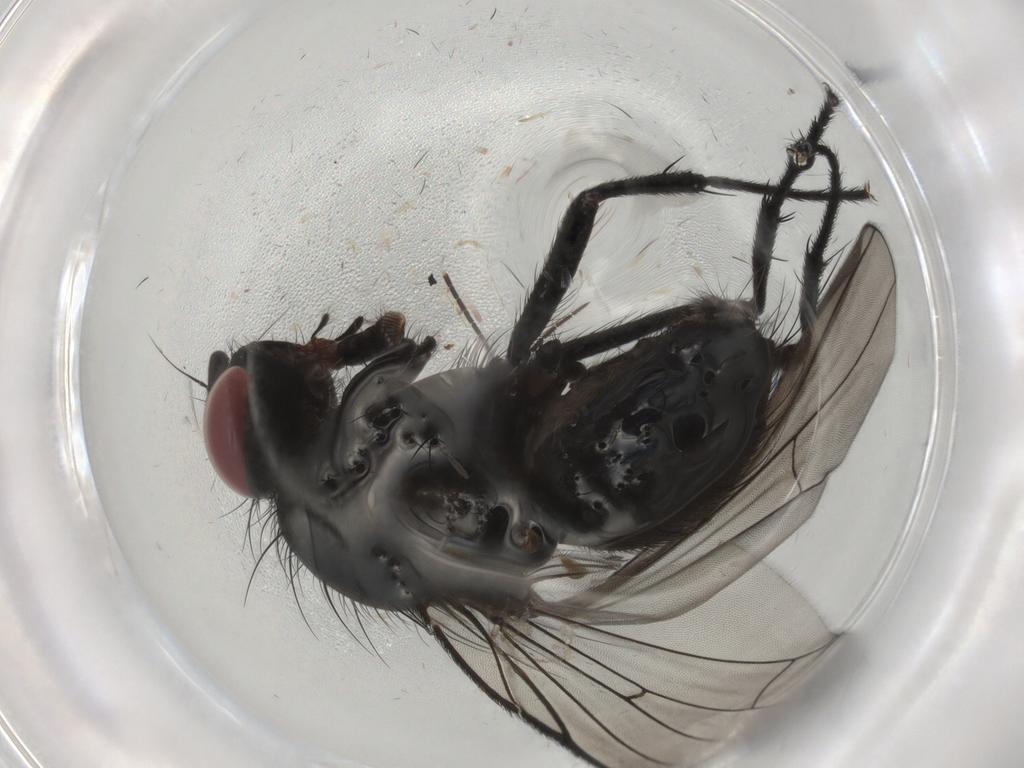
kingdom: Animalia
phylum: Arthropoda
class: Insecta
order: Diptera
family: Fannia
